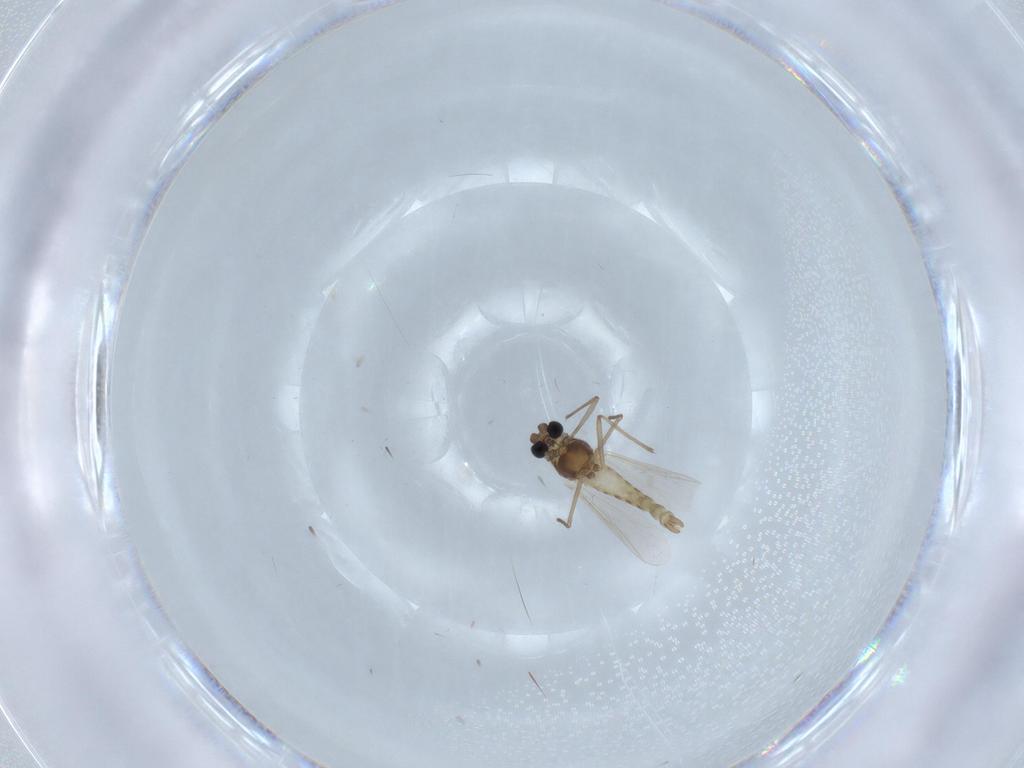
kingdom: Animalia
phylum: Arthropoda
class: Insecta
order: Diptera
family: Chironomidae
